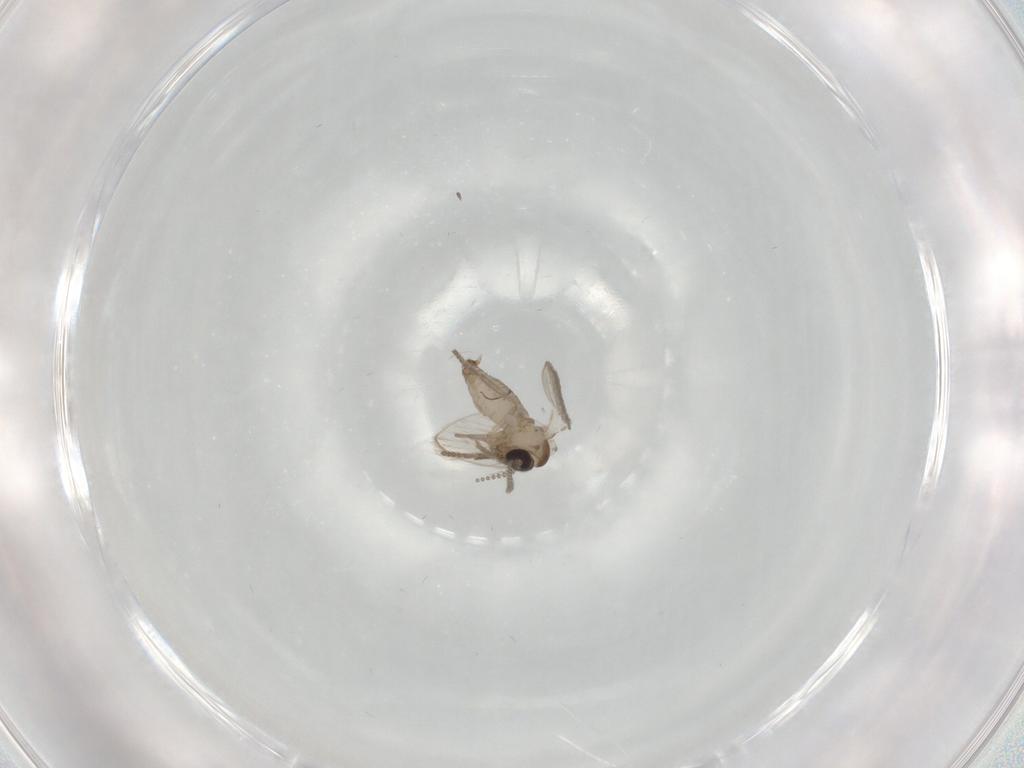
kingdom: Animalia
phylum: Arthropoda
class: Insecta
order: Diptera
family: Ceratopogonidae
